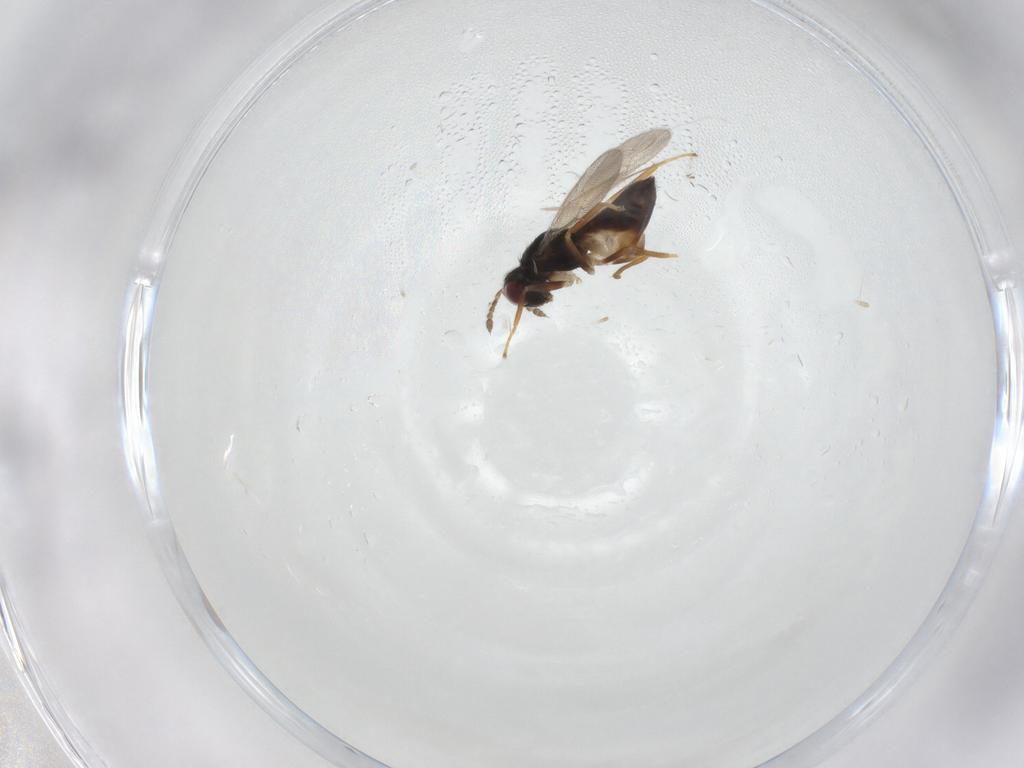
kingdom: Animalia
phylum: Arthropoda
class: Insecta
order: Hymenoptera
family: Eulophidae
